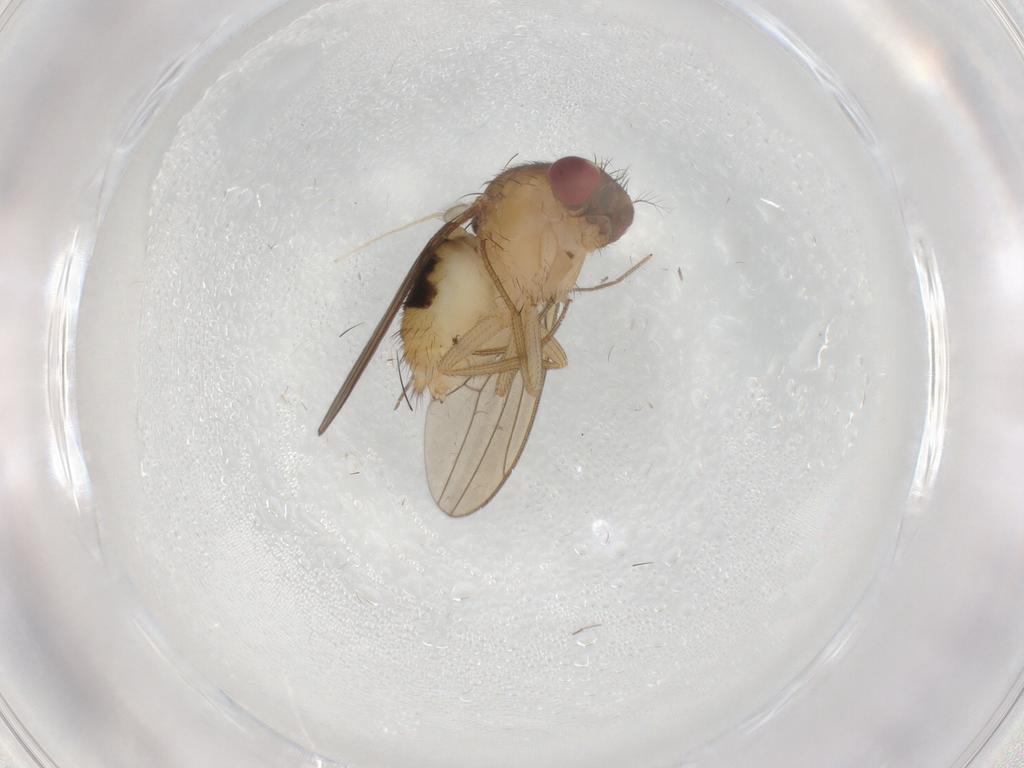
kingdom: Animalia
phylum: Arthropoda
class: Insecta
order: Diptera
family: Drosophilidae
